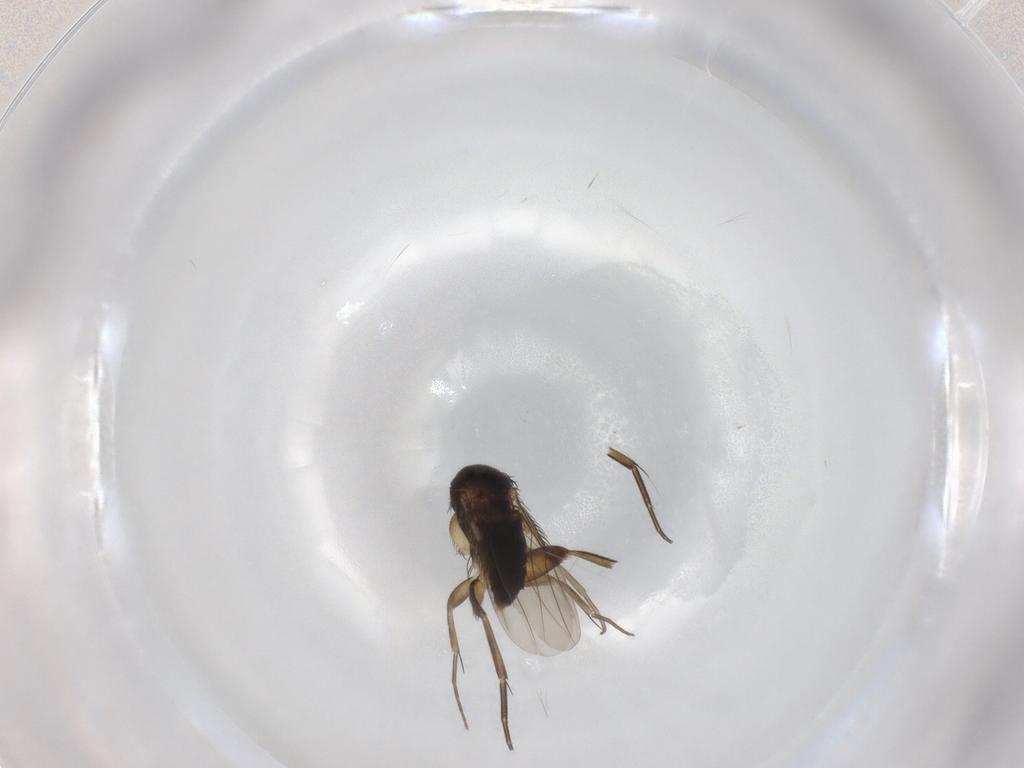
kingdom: Animalia
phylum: Arthropoda
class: Insecta
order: Diptera
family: Phoridae
